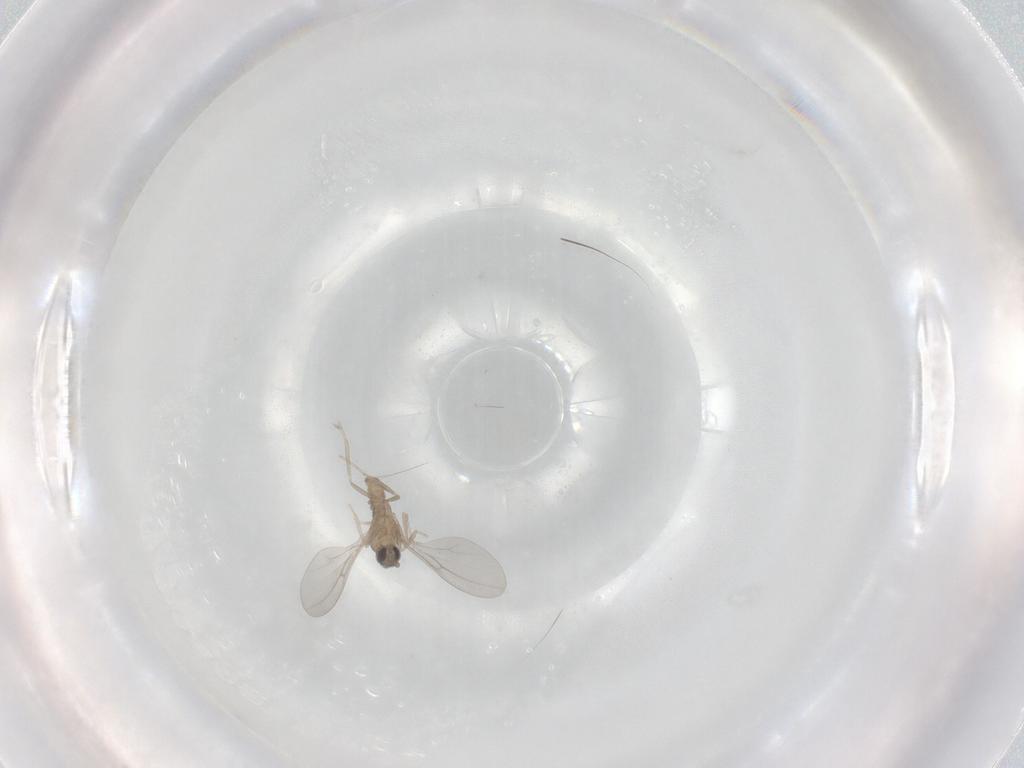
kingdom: Animalia
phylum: Arthropoda
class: Insecta
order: Diptera
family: Cecidomyiidae
